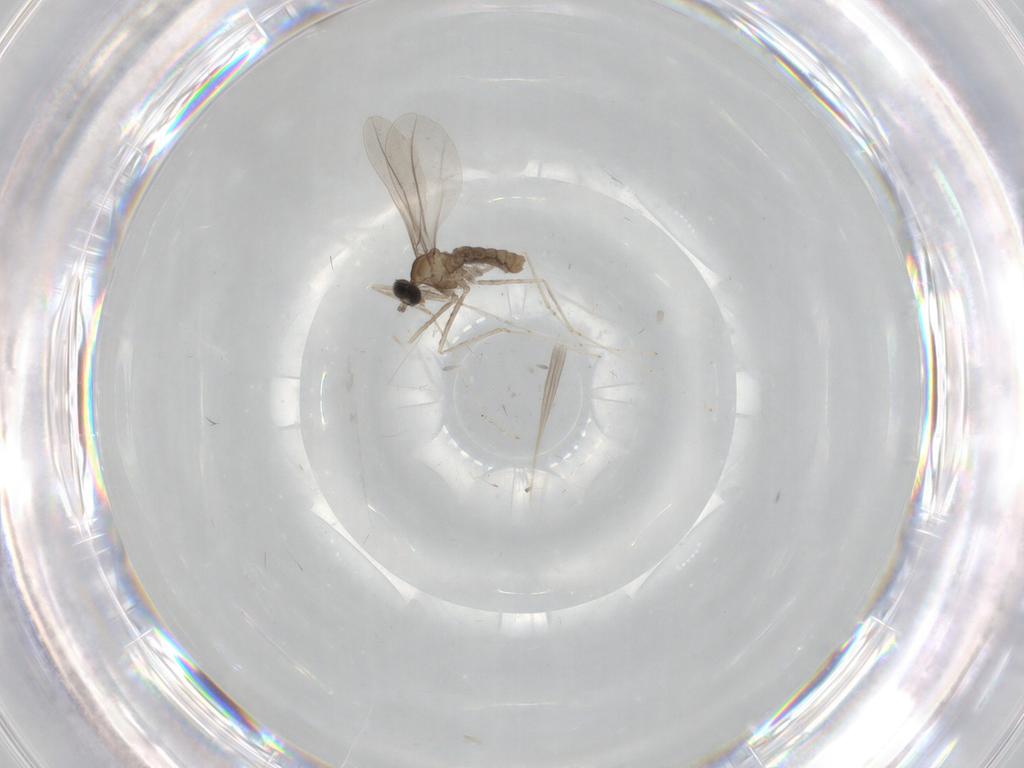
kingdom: Animalia
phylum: Arthropoda
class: Insecta
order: Diptera
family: Cecidomyiidae
